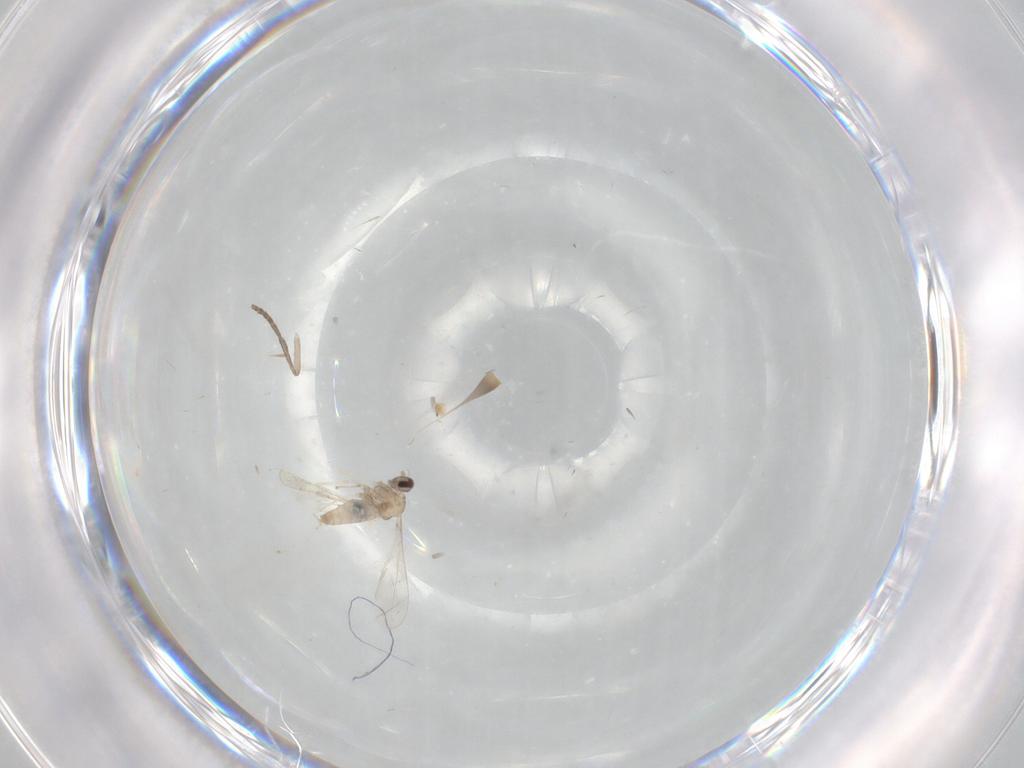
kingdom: Animalia
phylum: Arthropoda
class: Insecta
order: Diptera
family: Cecidomyiidae
